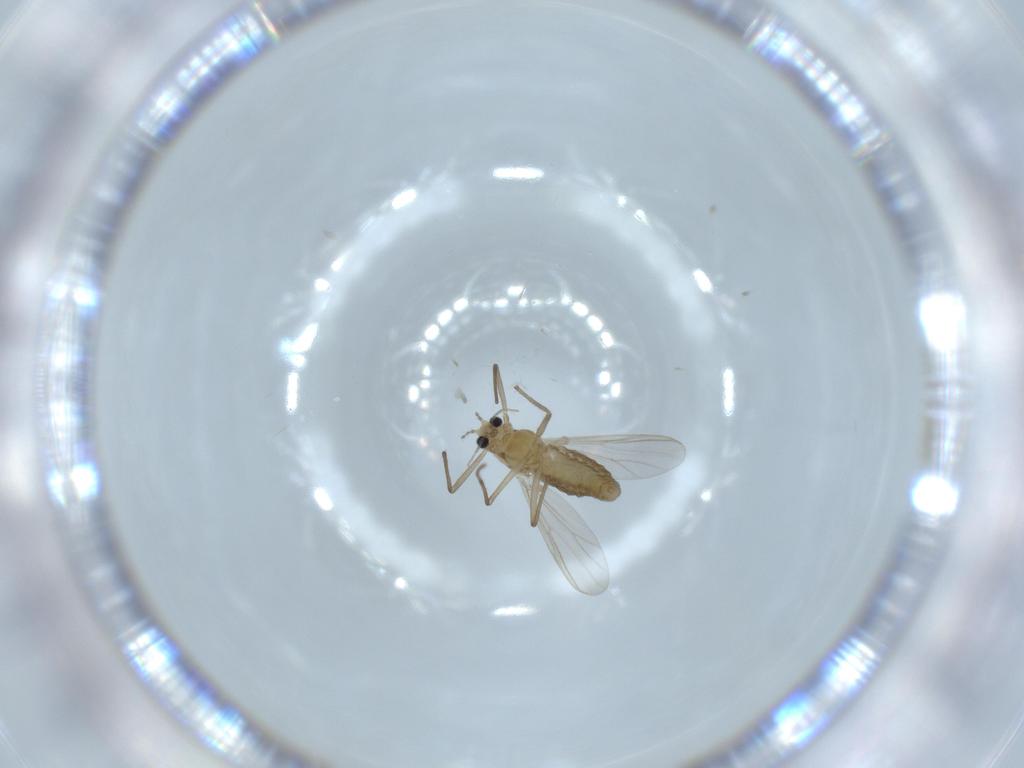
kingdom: Animalia
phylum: Arthropoda
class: Insecta
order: Diptera
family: Chironomidae
